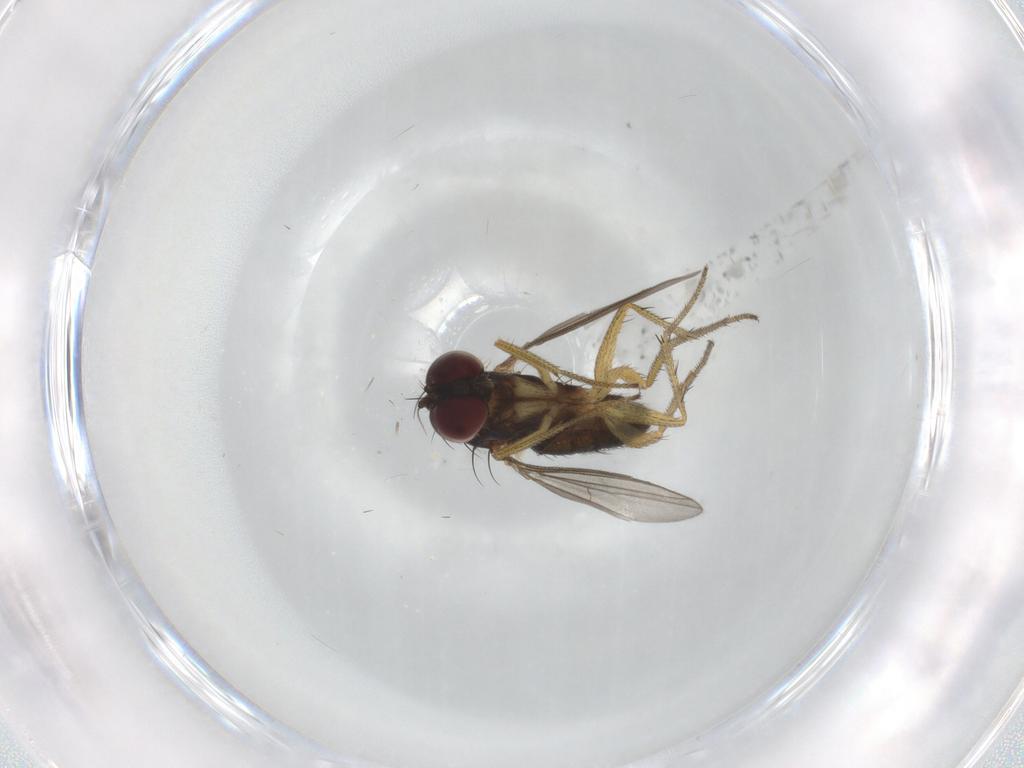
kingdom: Animalia
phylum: Arthropoda
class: Insecta
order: Diptera
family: Dolichopodidae
